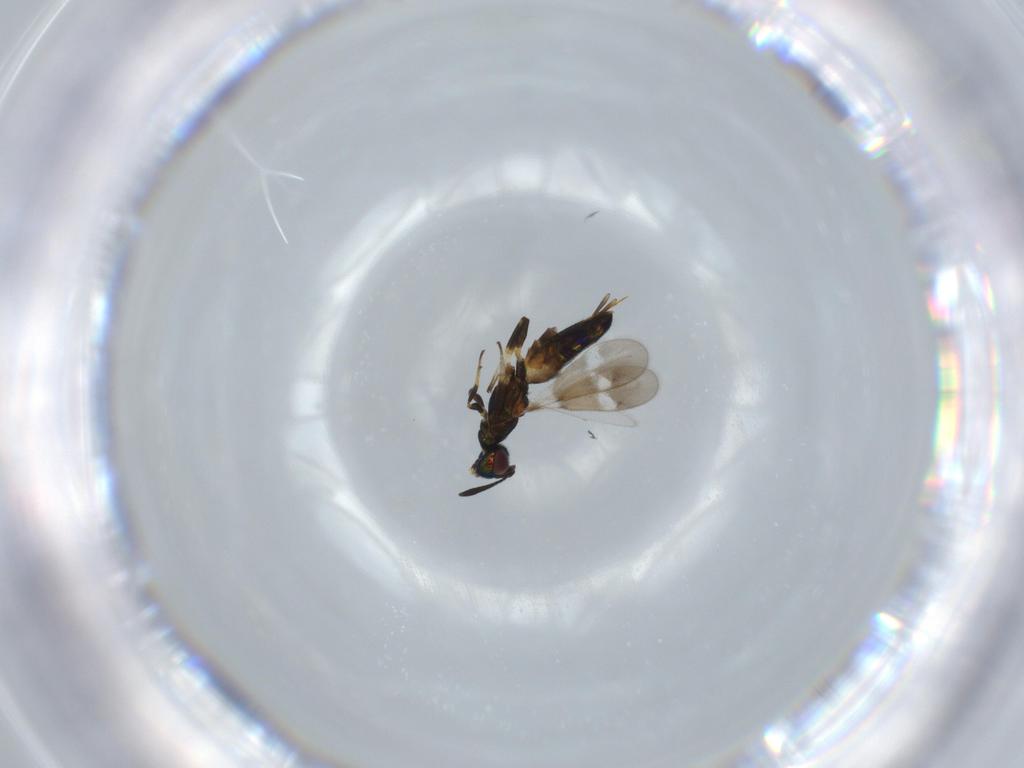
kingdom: Animalia
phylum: Arthropoda
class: Insecta
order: Hymenoptera
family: Eupelmidae
